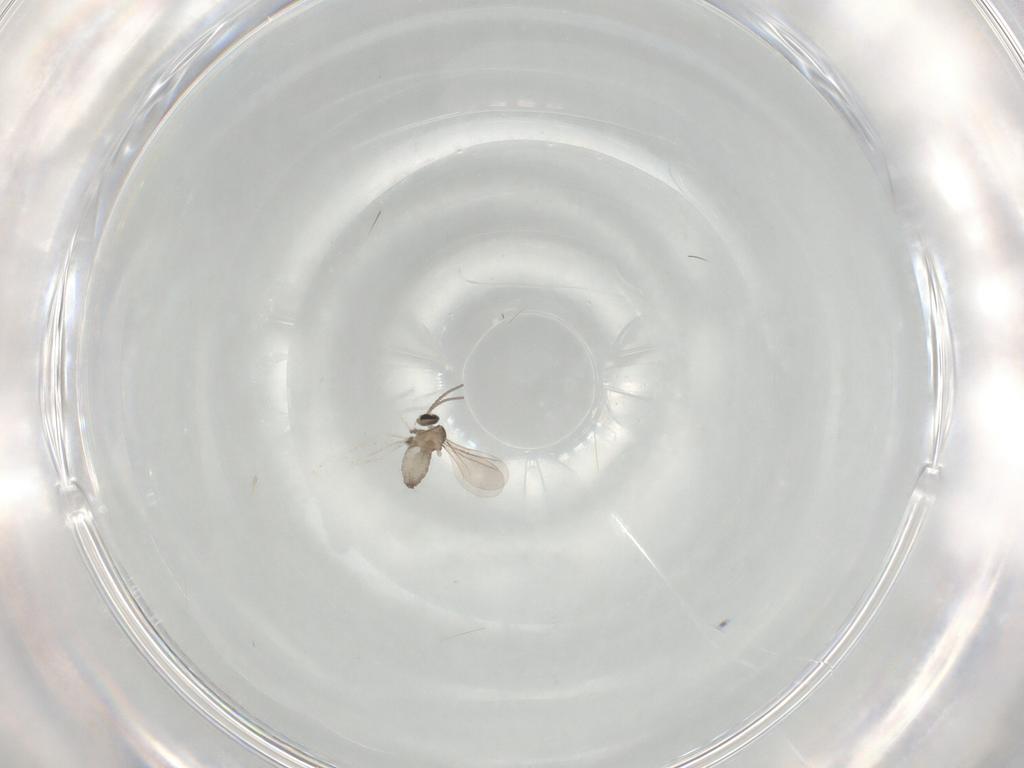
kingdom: Animalia
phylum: Arthropoda
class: Insecta
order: Diptera
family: Cecidomyiidae
